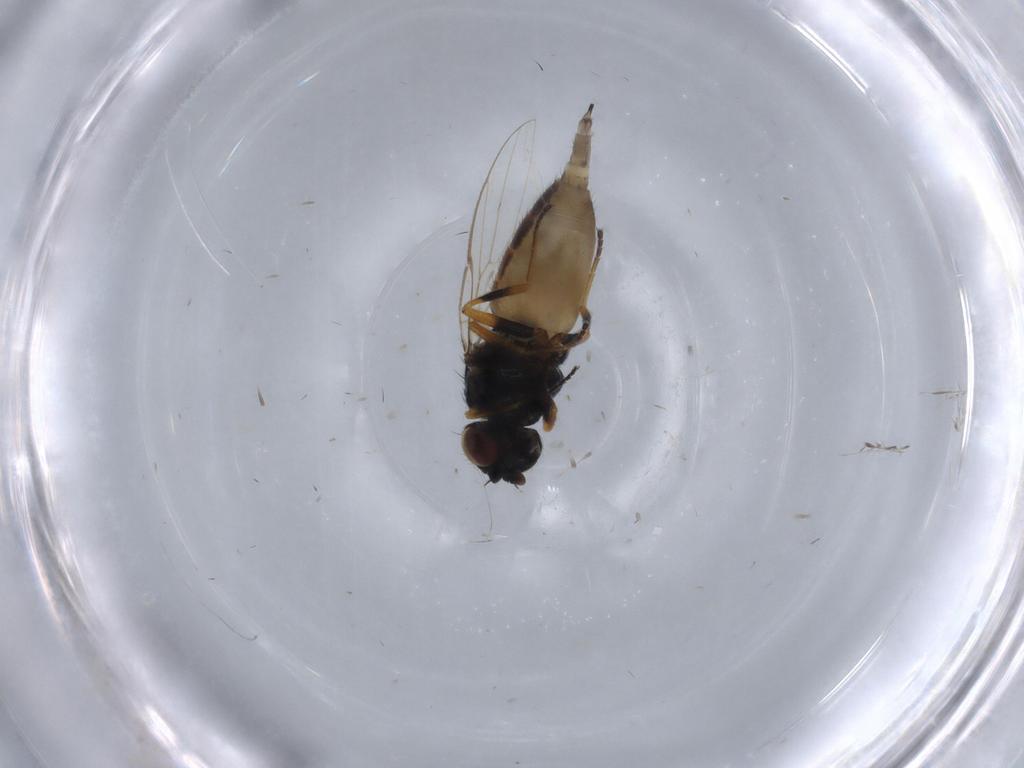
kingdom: Animalia
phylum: Arthropoda
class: Insecta
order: Diptera
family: Chloropidae
